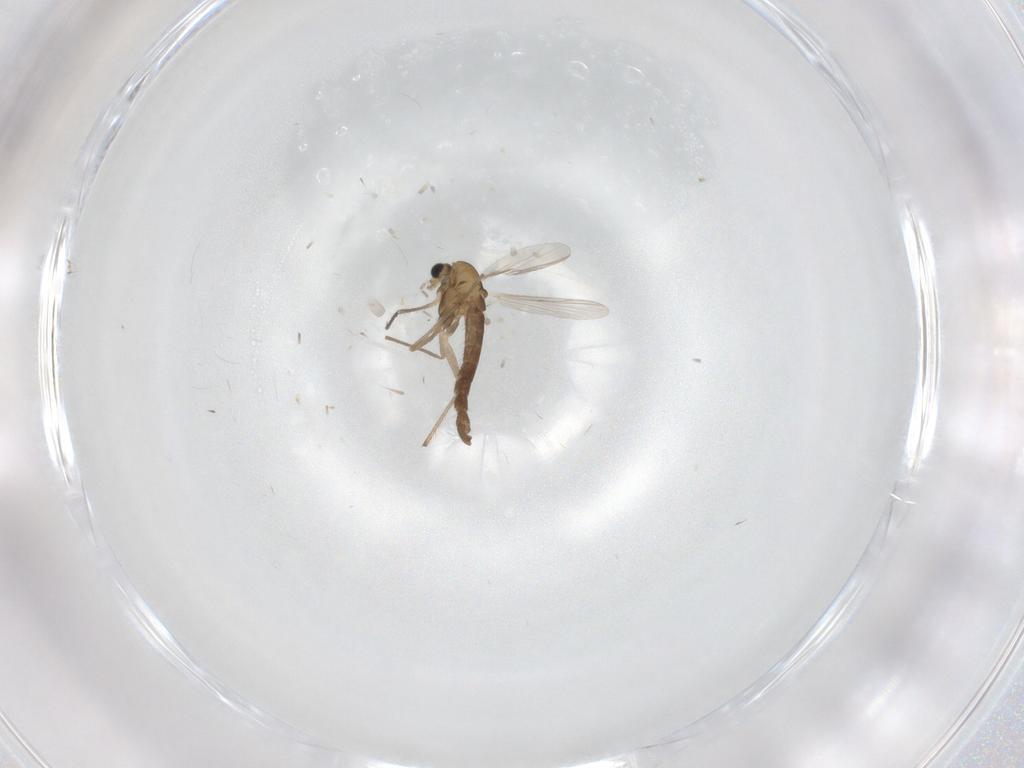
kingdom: Animalia
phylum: Arthropoda
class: Insecta
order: Diptera
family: Chironomidae
